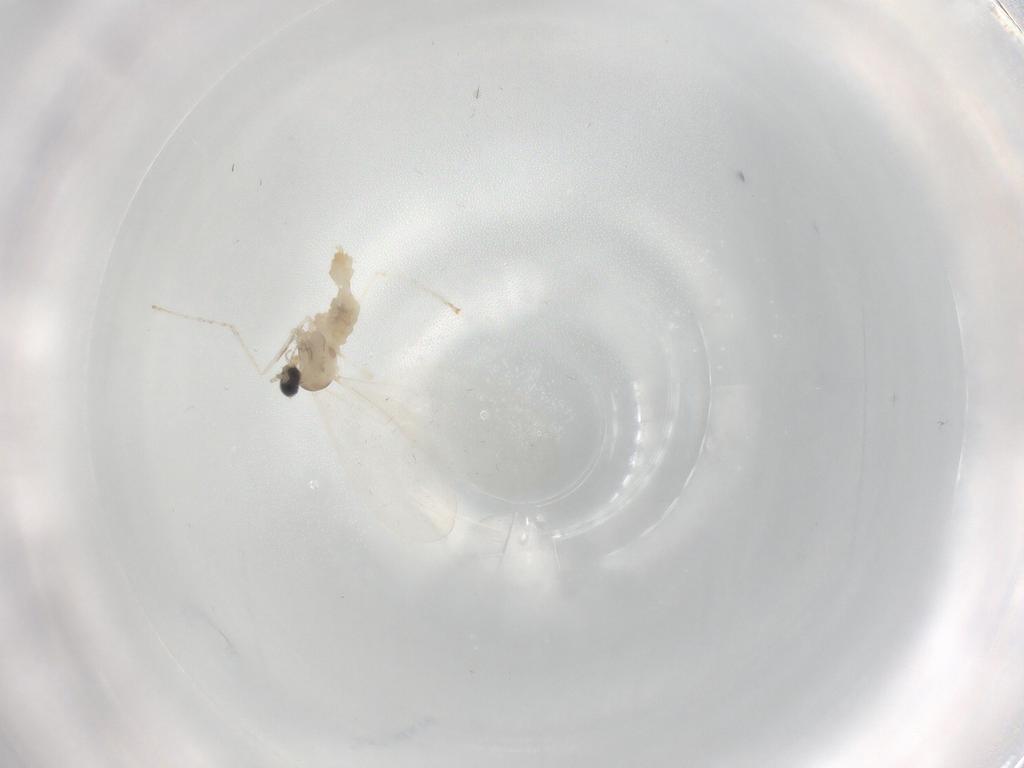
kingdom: Animalia
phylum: Arthropoda
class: Insecta
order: Diptera
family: Cecidomyiidae
